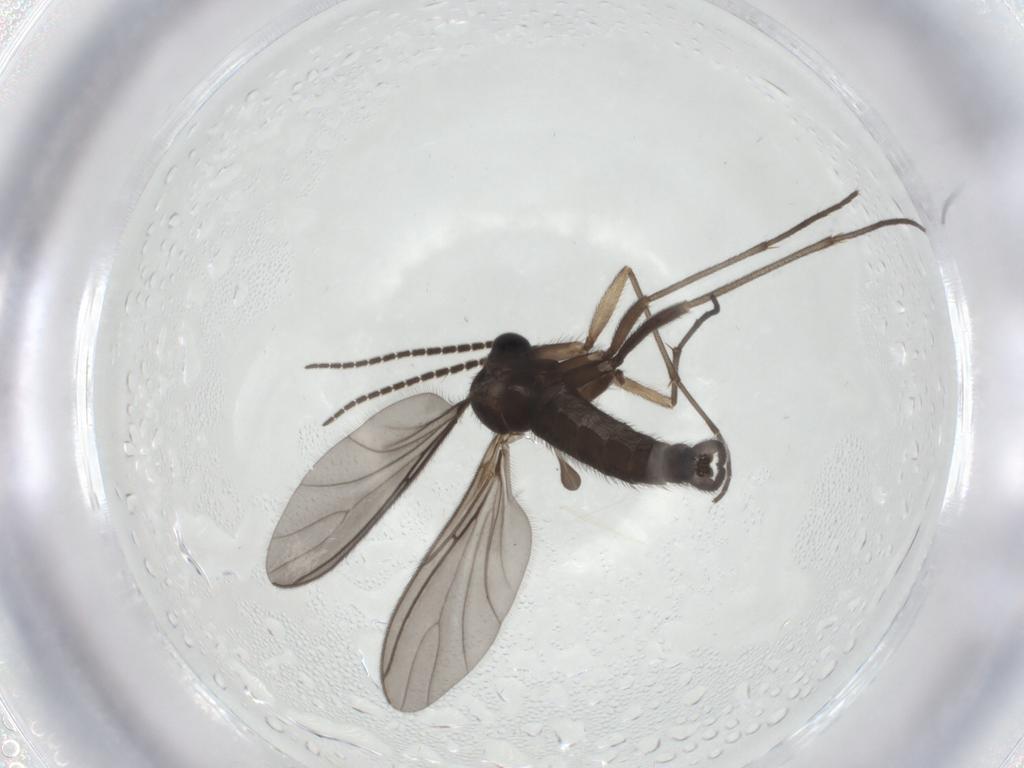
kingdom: Animalia
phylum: Arthropoda
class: Insecta
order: Diptera
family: Sciaridae
